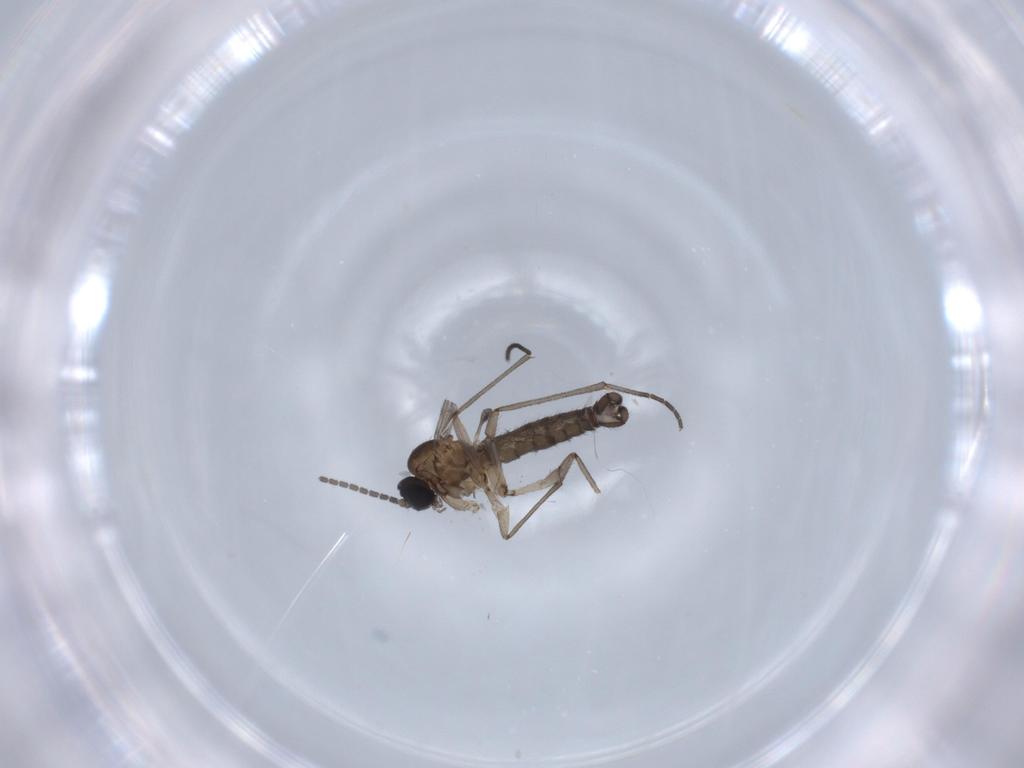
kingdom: Animalia
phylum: Arthropoda
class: Insecta
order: Diptera
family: Sciaridae
